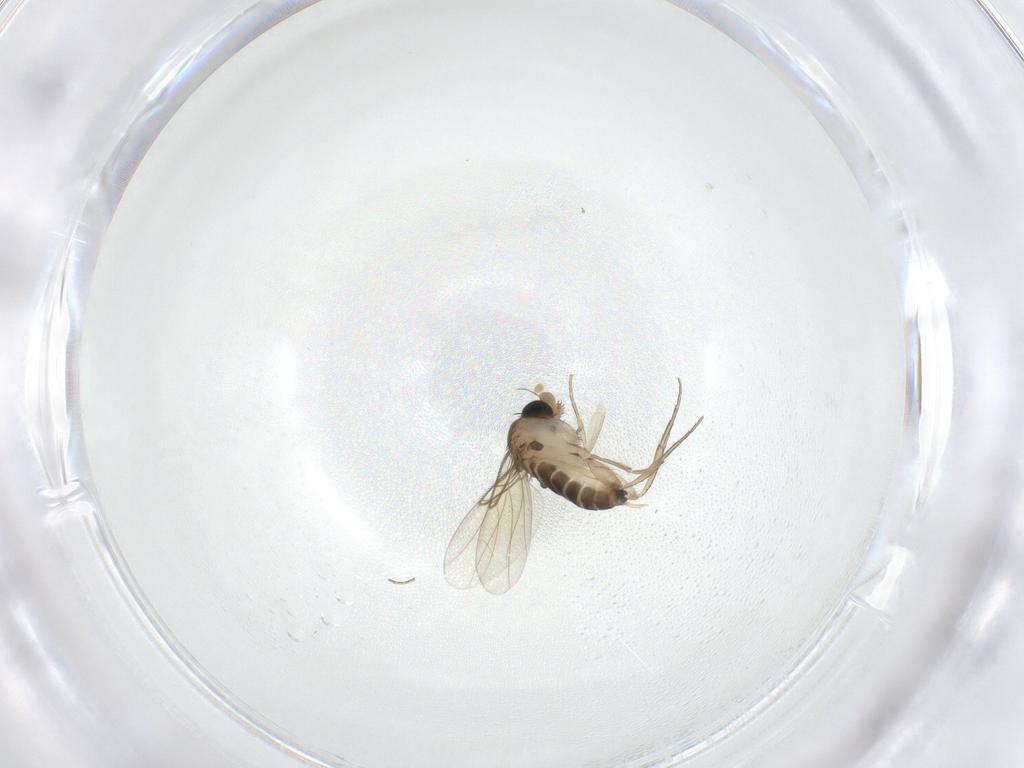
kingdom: Animalia
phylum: Arthropoda
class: Insecta
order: Diptera
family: Phoridae
